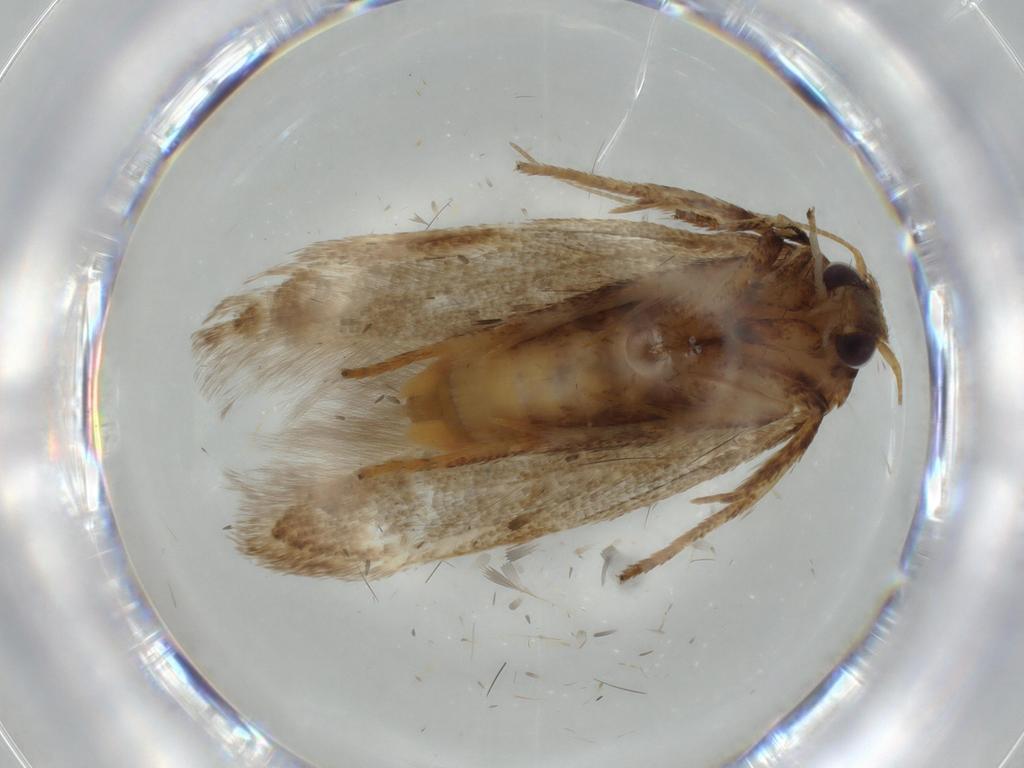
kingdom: Animalia
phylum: Arthropoda
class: Insecta
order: Lepidoptera
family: Blastobasidae
